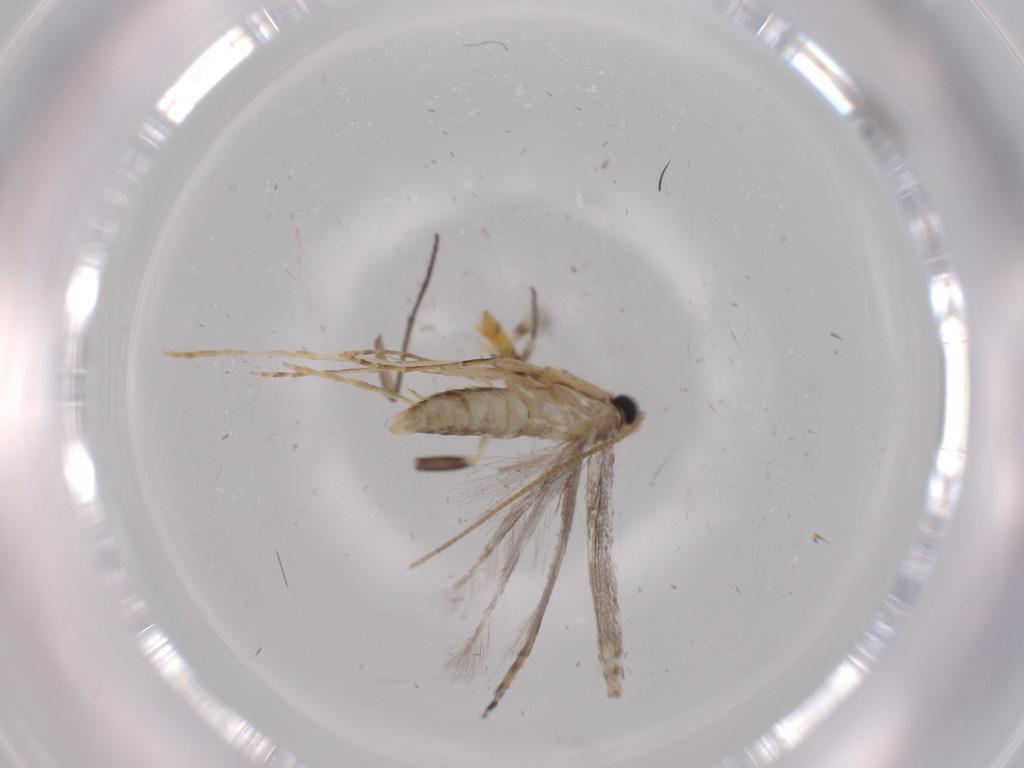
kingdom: Animalia
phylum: Arthropoda
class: Insecta
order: Lepidoptera
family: Gracillariidae
